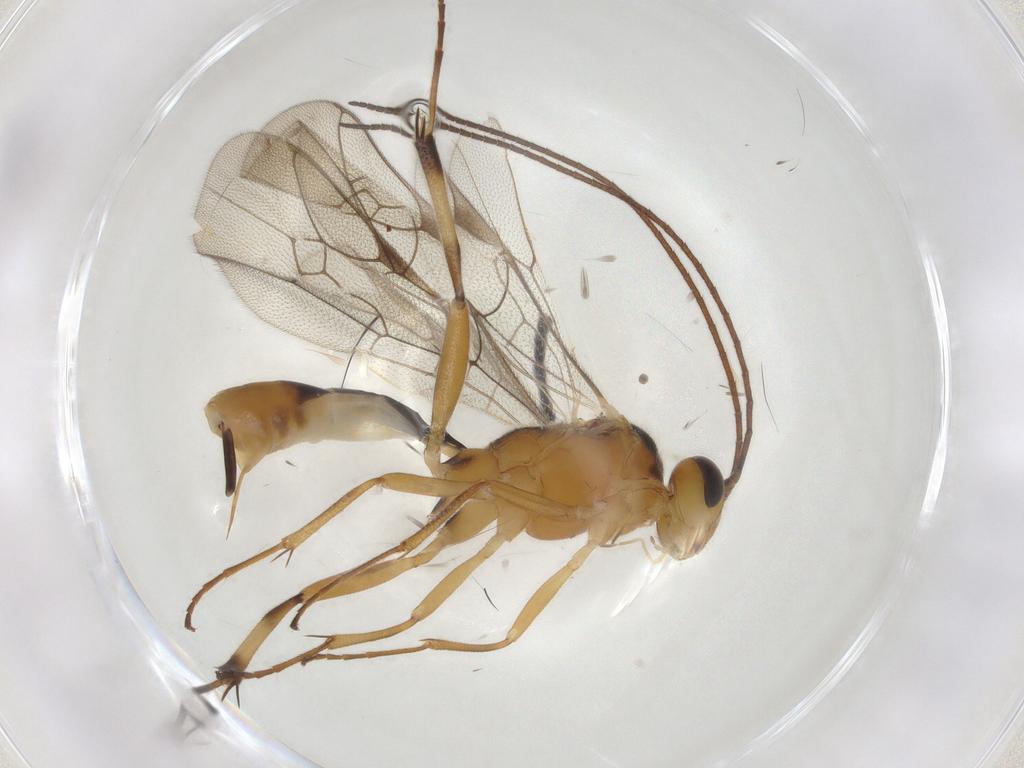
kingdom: Animalia
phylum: Arthropoda
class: Insecta
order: Hymenoptera
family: Ichneumonidae
